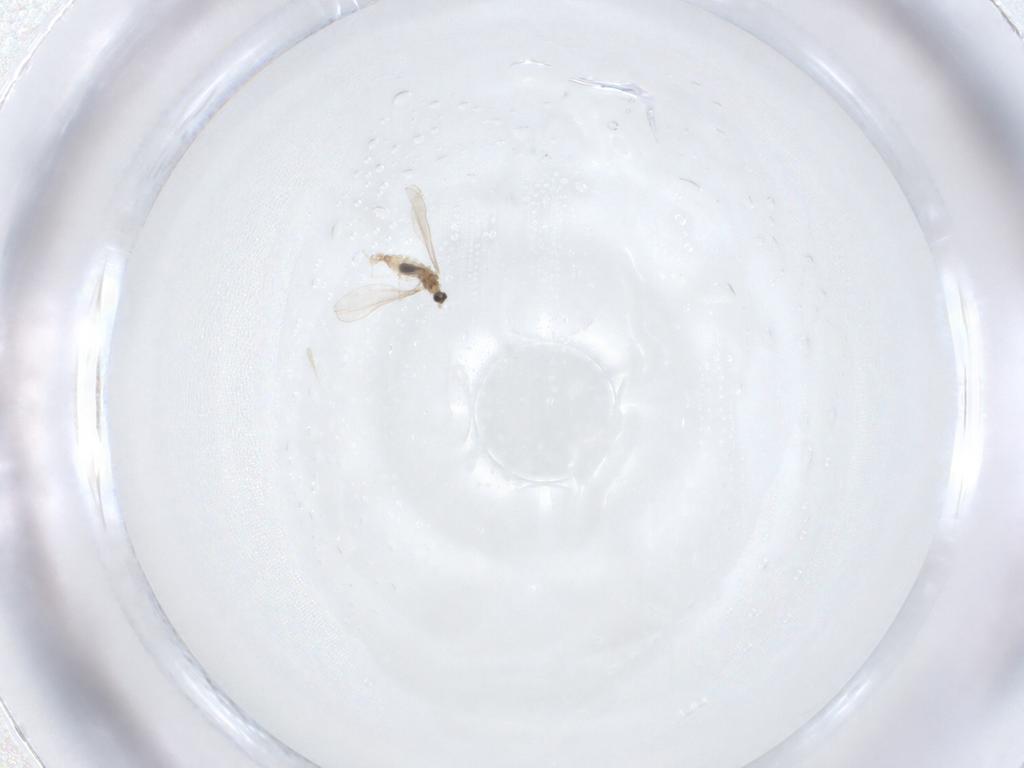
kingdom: Animalia
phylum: Arthropoda
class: Insecta
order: Diptera
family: Cecidomyiidae
